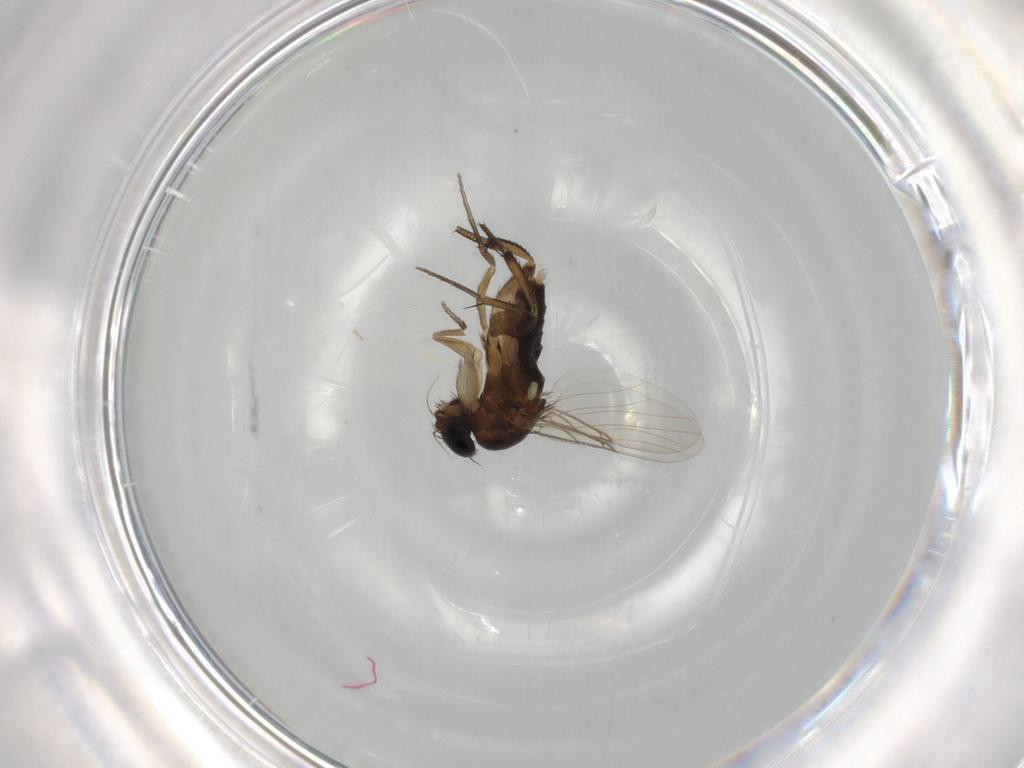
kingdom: Animalia
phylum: Arthropoda
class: Insecta
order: Diptera
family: Phoridae
